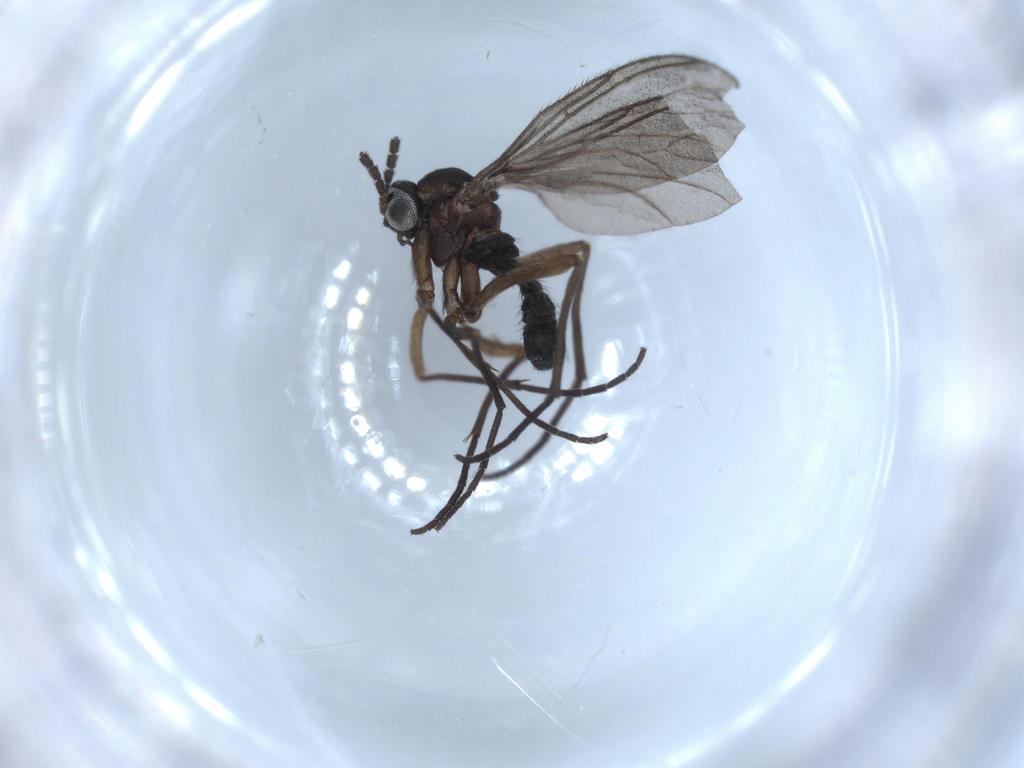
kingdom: Animalia
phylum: Arthropoda
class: Insecta
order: Diptera
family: Sciaridae
